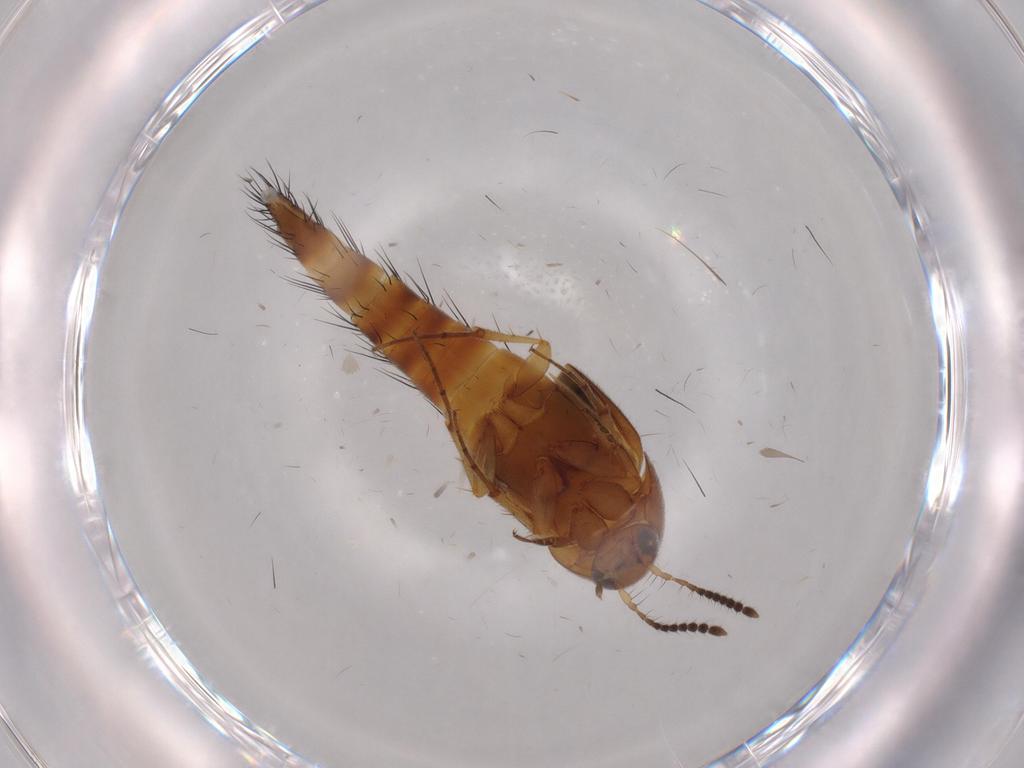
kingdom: Animalia
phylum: Arthropoda
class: Insecta
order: Coleoptera
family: Staphylinidae
